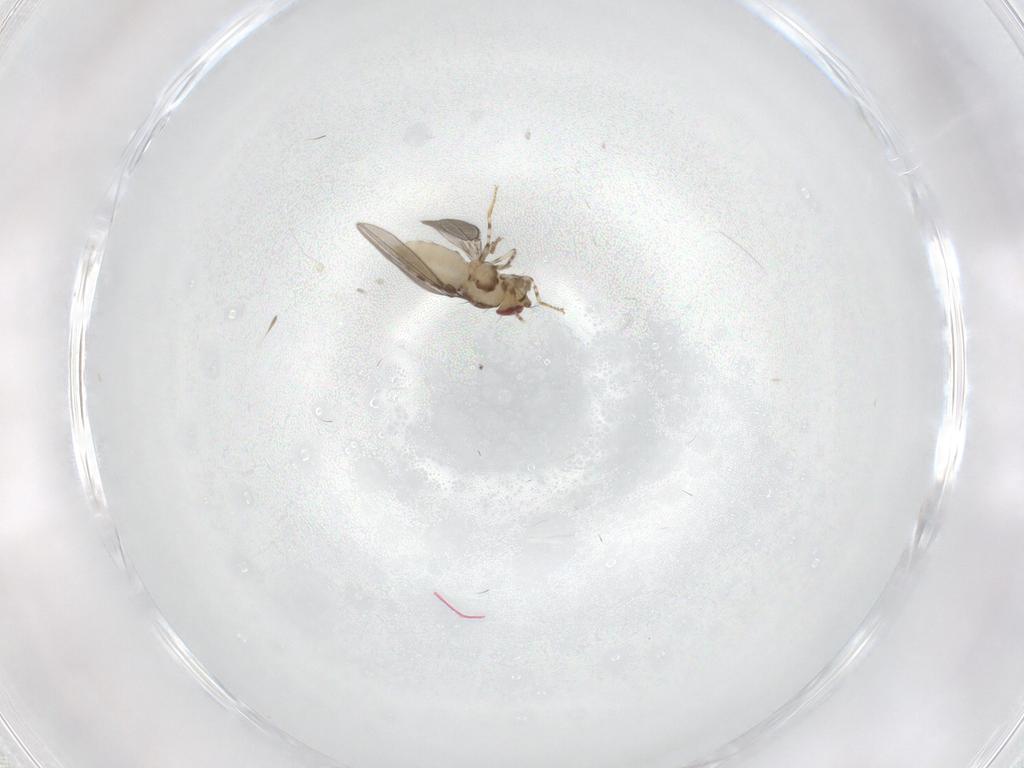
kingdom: Animalia
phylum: Arthropoda
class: Insecta
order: Diptera
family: Asteiidae
